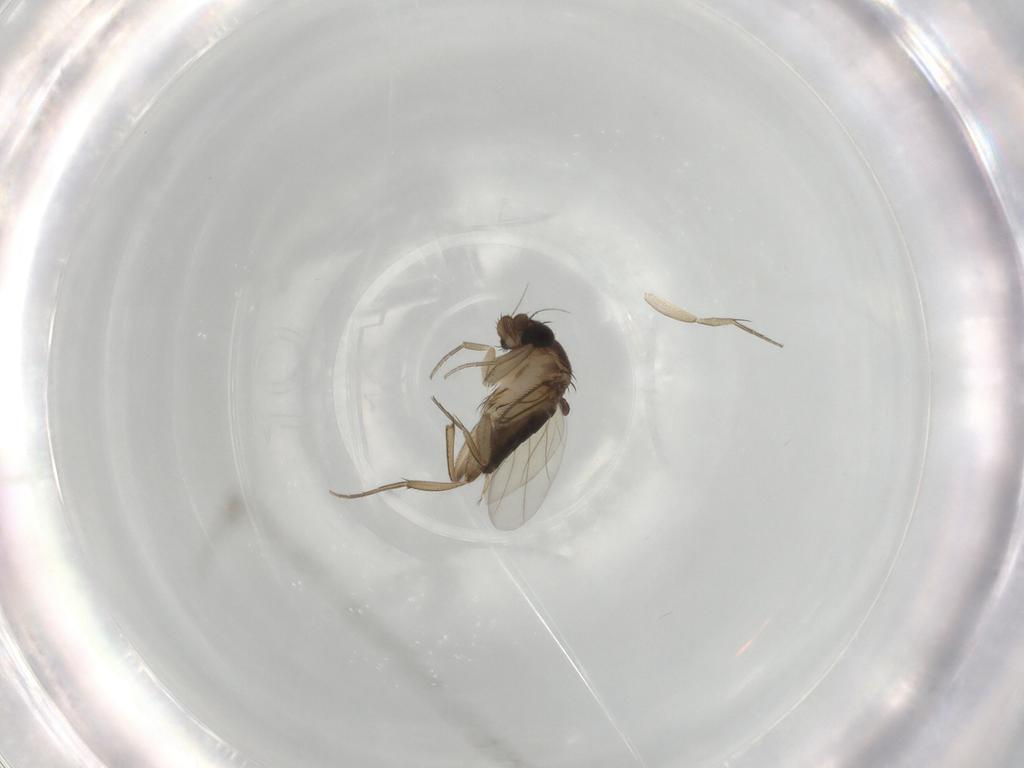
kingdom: Animalia
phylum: Arthropoda
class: Insecta
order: Diptera
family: Phoridae
